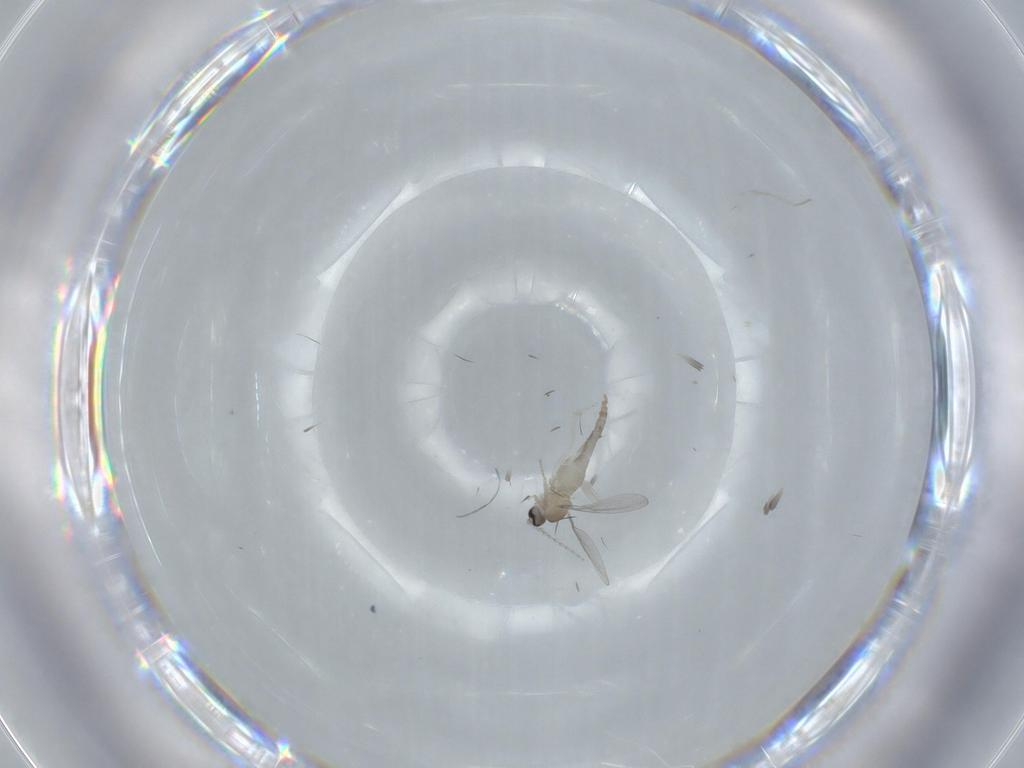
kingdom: Animalia
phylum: Arthropoda
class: Insecta
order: Diptera
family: Cecidomyiidae
